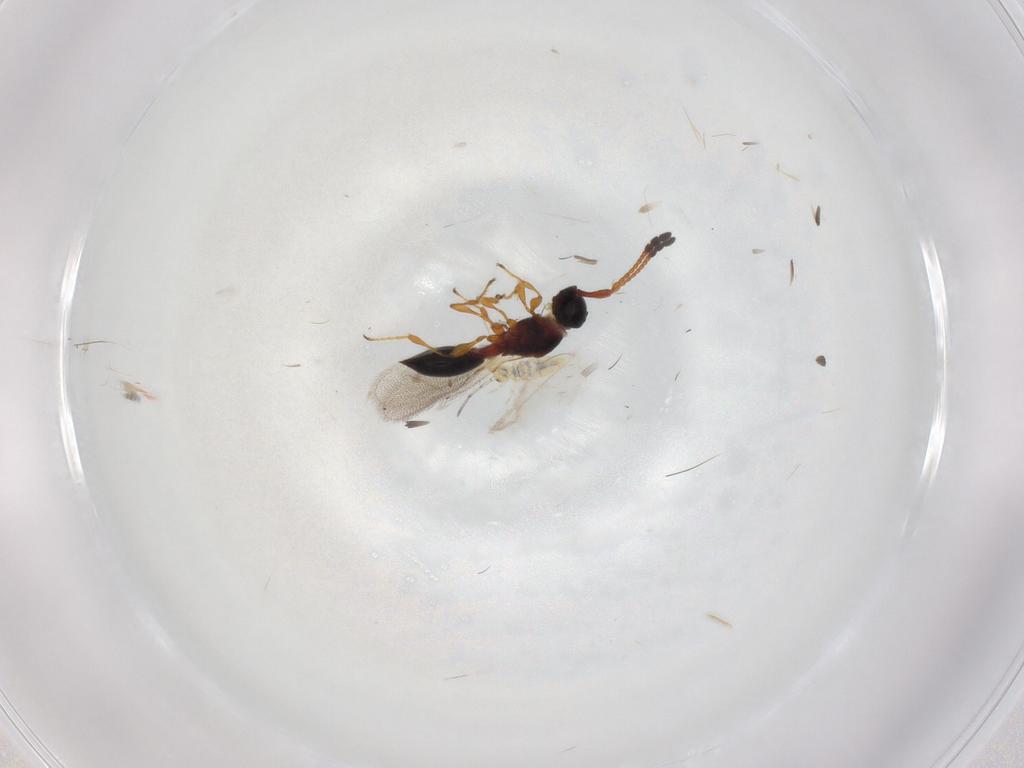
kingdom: Animalia
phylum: Arthropoda
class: Insecta
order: Hymenoptera
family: Diapriidae
